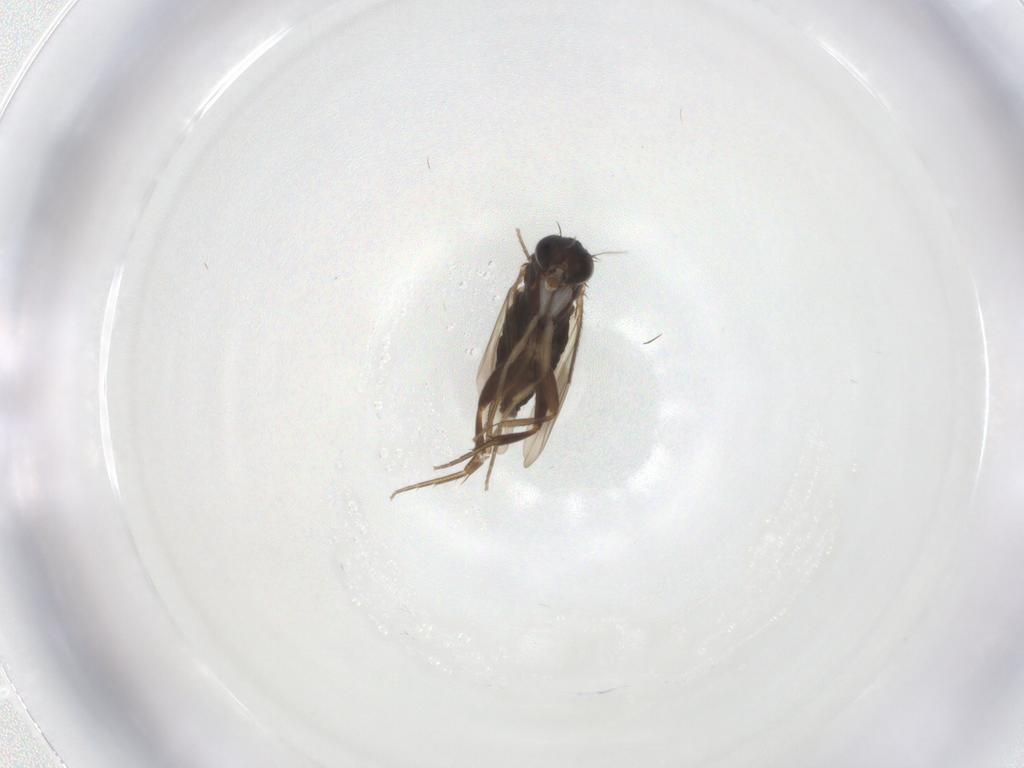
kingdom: Animalia
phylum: Arthropoda
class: Insecta
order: Diptera
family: Phoridae
